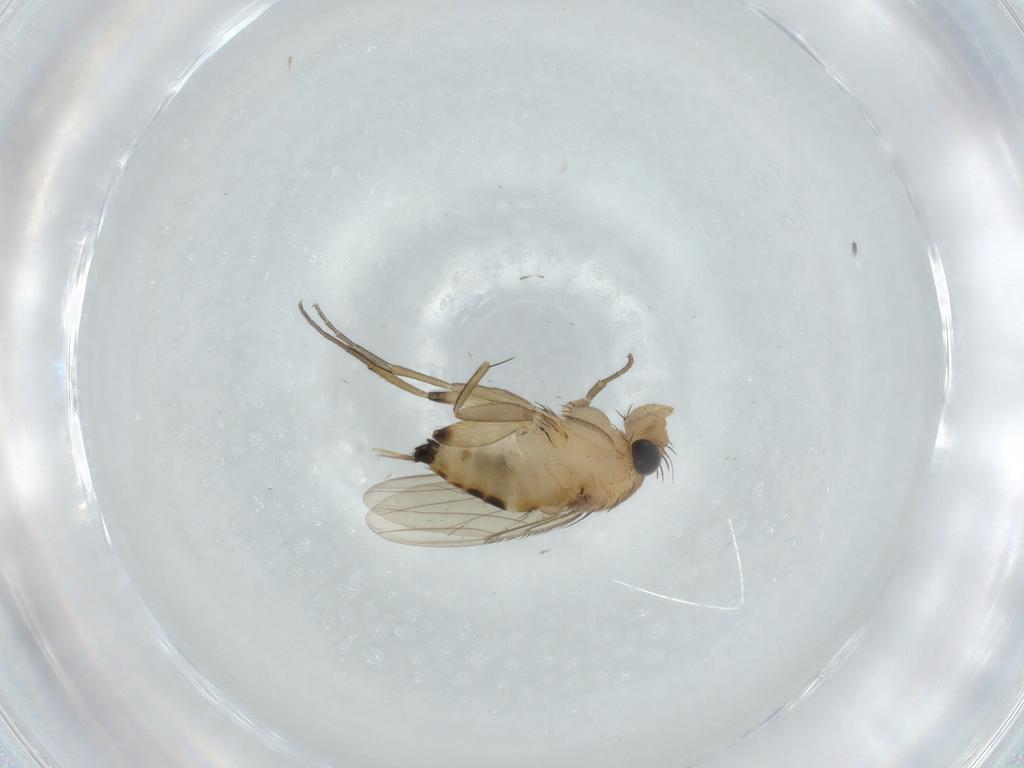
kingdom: Animalia
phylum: Arthropoda
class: Insecta
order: Diptera
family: Phoridae
